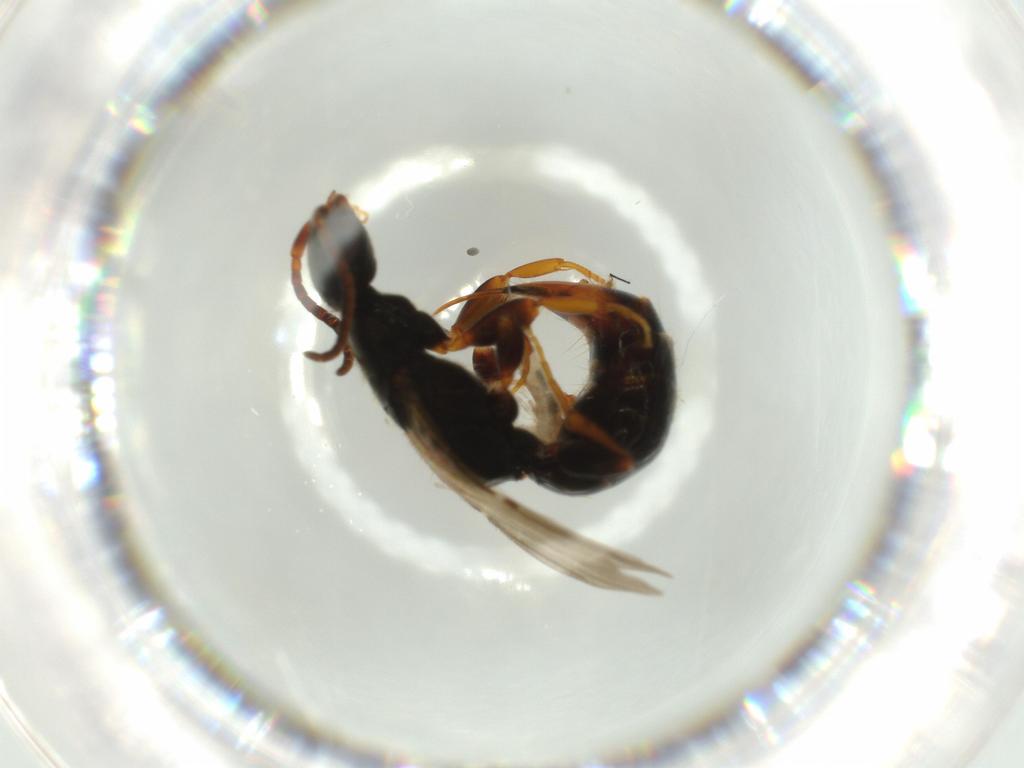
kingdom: Animalia
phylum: Arthropoda
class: Insecta
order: Hymenoptera
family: Bethylidae
